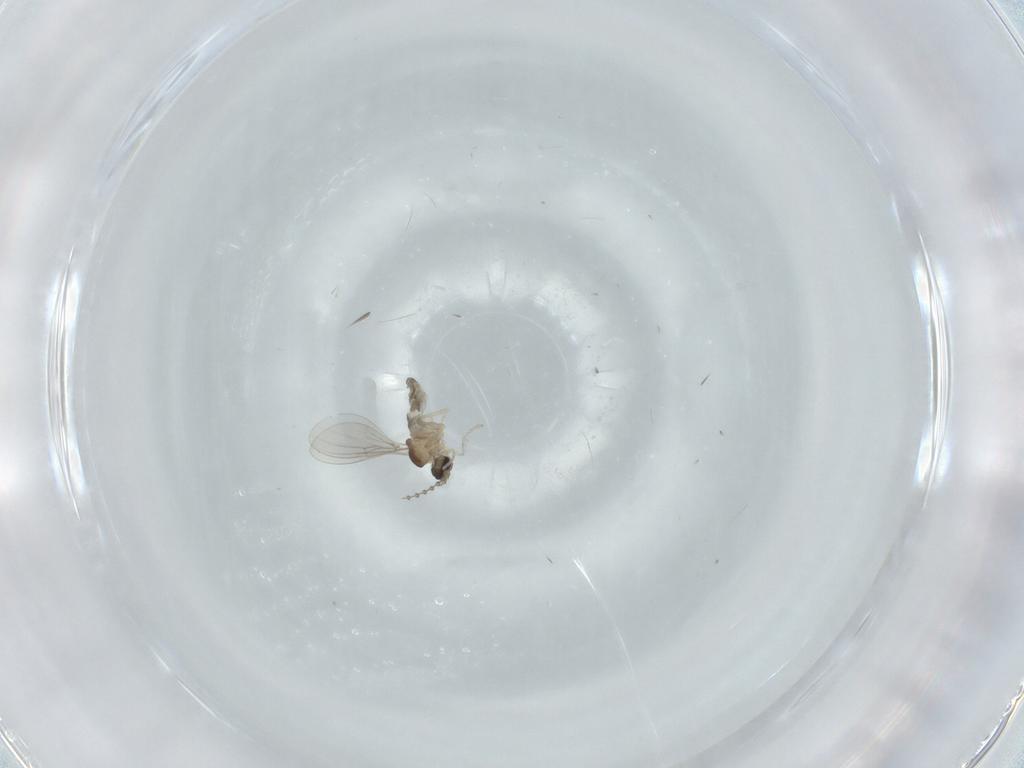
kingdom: Animalia
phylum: Arthropoda
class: Insecta
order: Diptera
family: Cecidomyiidae
